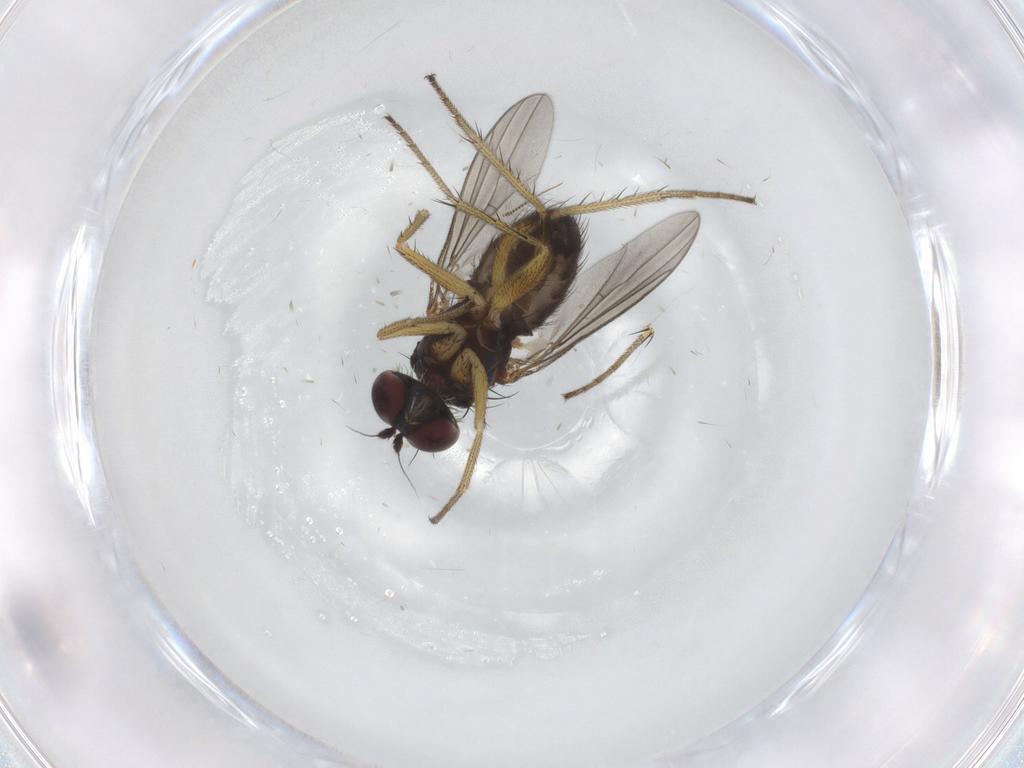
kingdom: Animalia
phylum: Arthropoda
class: Insecta
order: Diptera
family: Dolichopodidae
